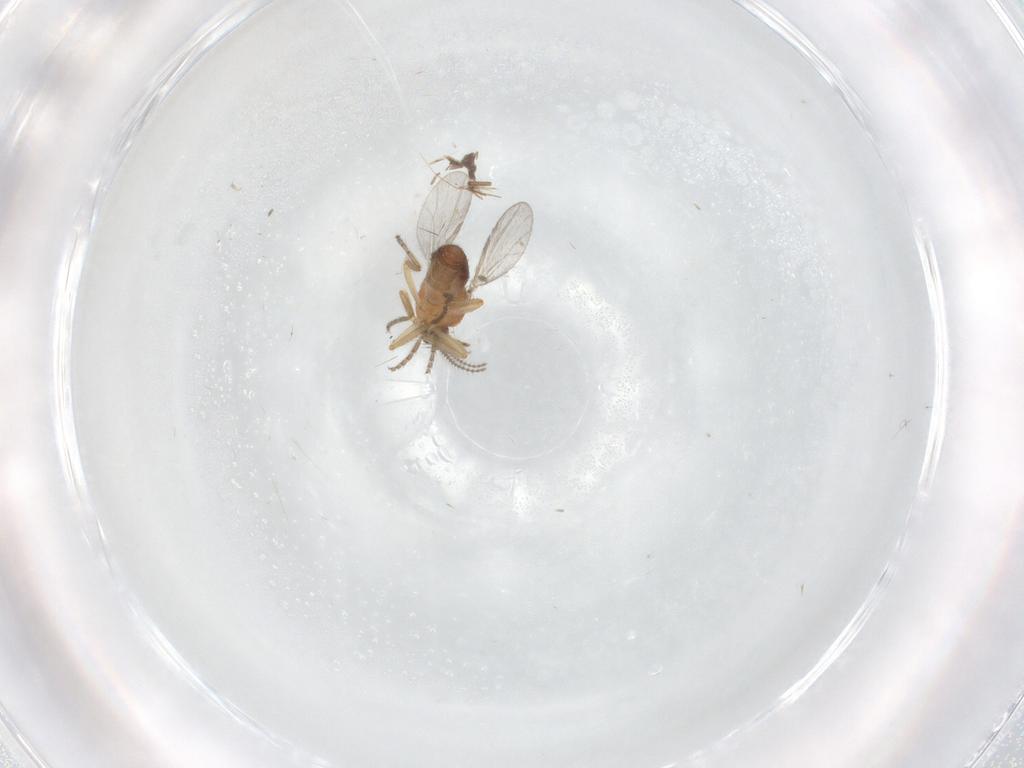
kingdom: Animalia
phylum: Arthropoda
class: Insecta
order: Diptera
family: Ceratopogonidae
